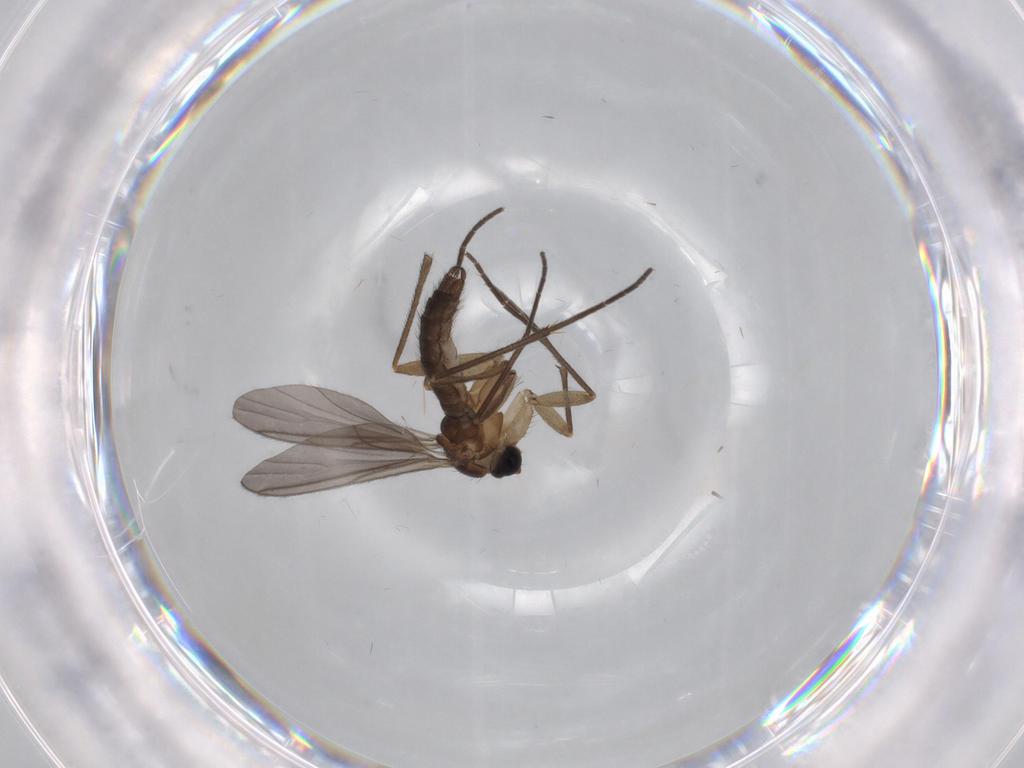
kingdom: Animalia
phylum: Arthropoda
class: Insecta
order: Diptera
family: Sciaridae
